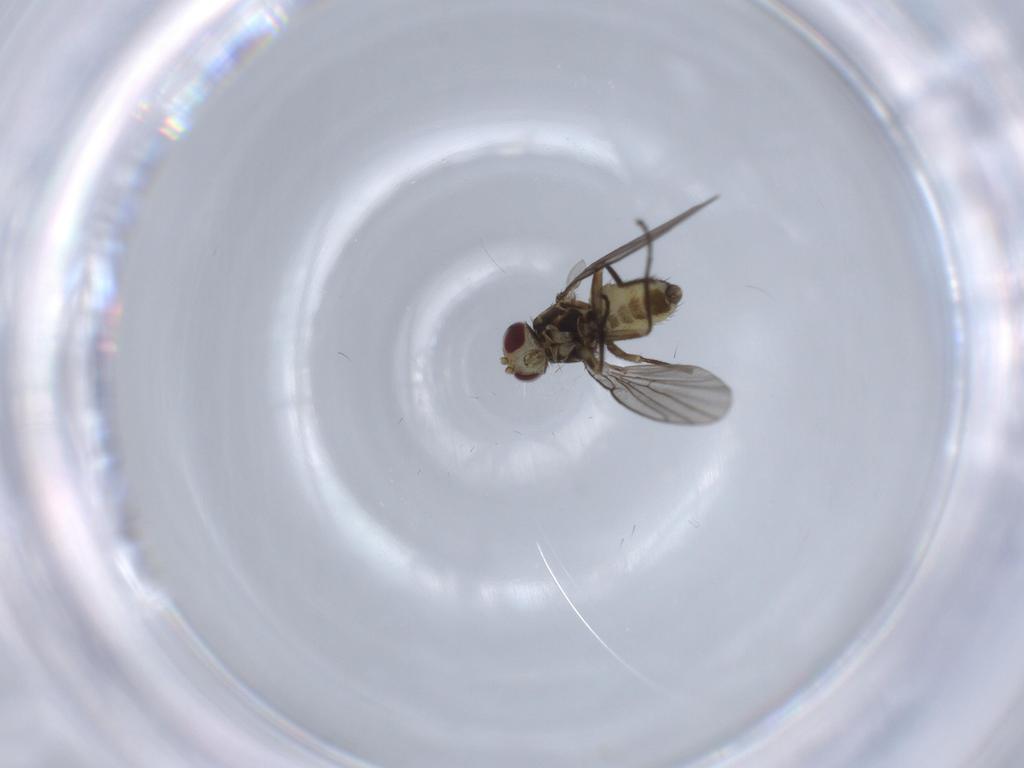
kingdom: Animalia
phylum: Arthropoda
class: Insecta
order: Diptera
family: Agromyzidae
